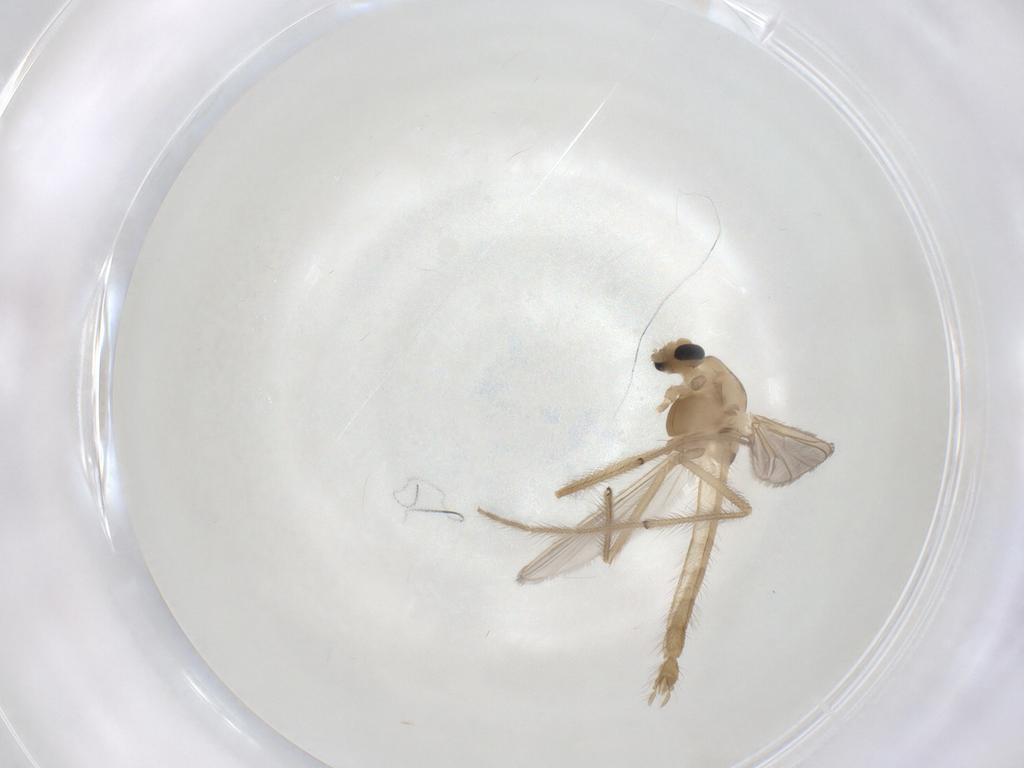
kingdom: Animalia
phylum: Arthropoda
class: Insecta
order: Diptera
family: Chironomidae
